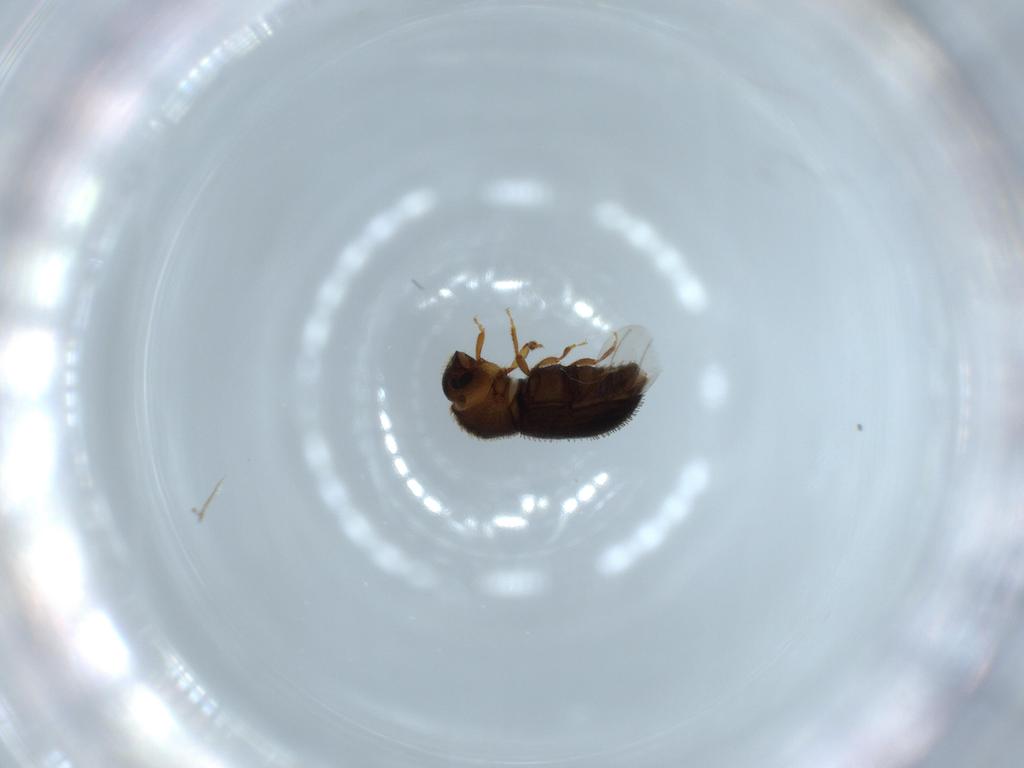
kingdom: Animalia
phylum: Arthropoda
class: Insecta
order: Coleoptera
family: Curculionidae
